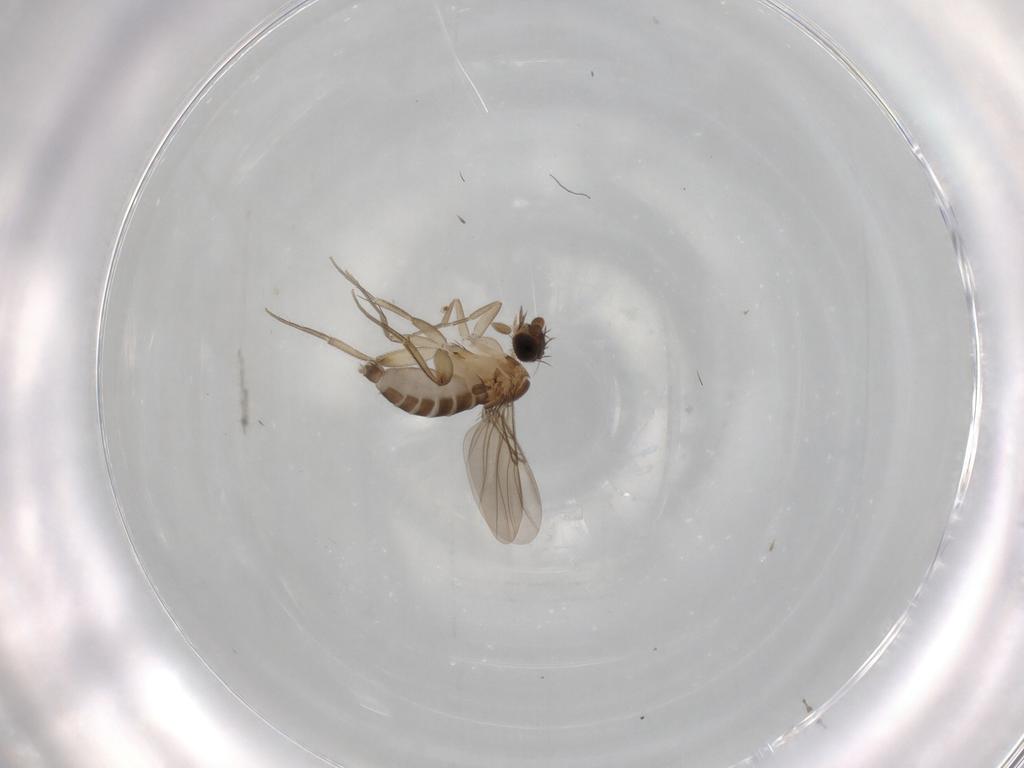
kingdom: Animalia
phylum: Arthropoda
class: Insecta
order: Diptera
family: Phoridae
